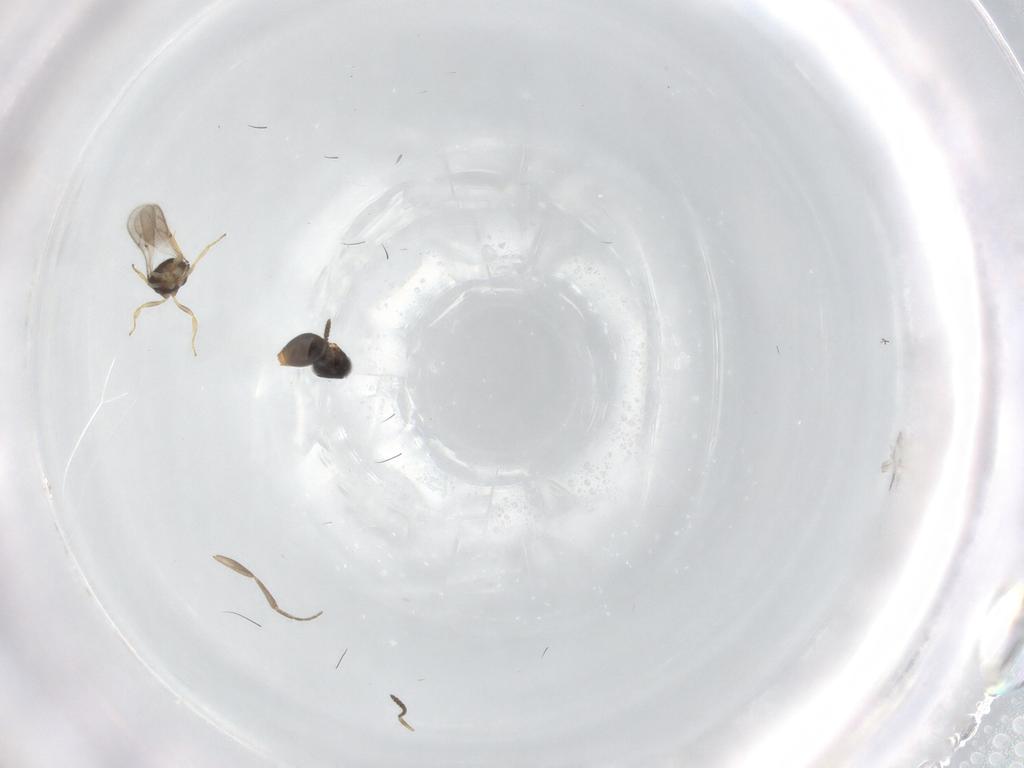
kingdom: Animalia
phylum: Arthropoda
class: Insecta
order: Hymenoptera
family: Scelionidae
